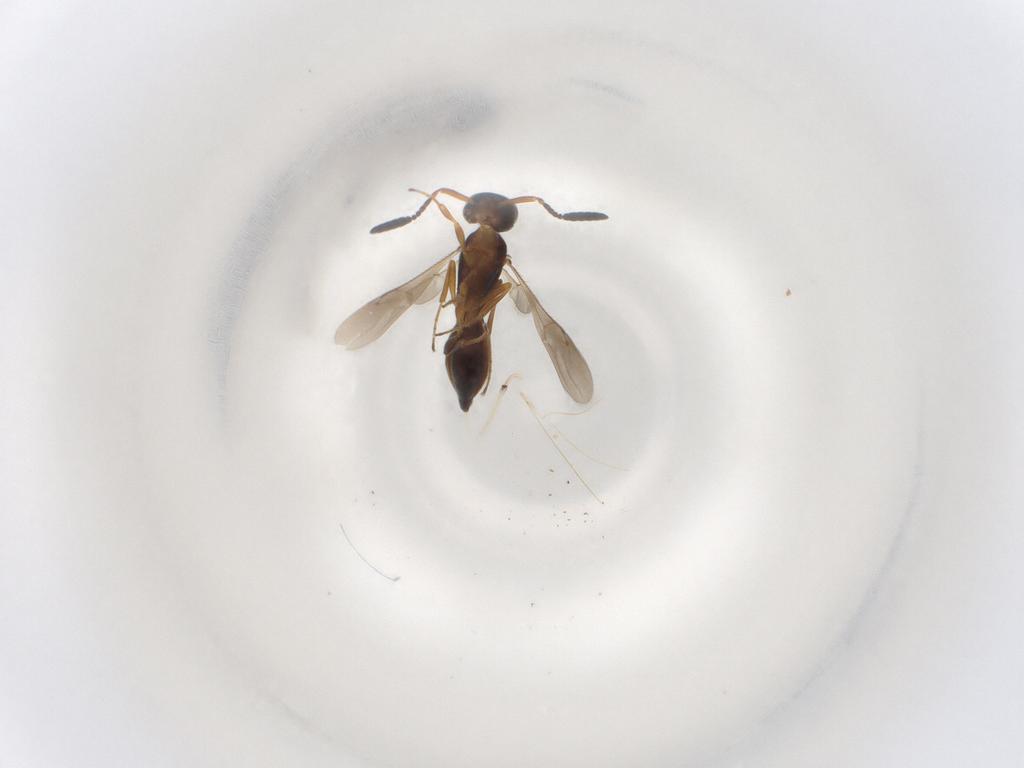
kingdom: Animalia
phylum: Arthropoda
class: Insecta
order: Hymenoptera
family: Scelionidae
